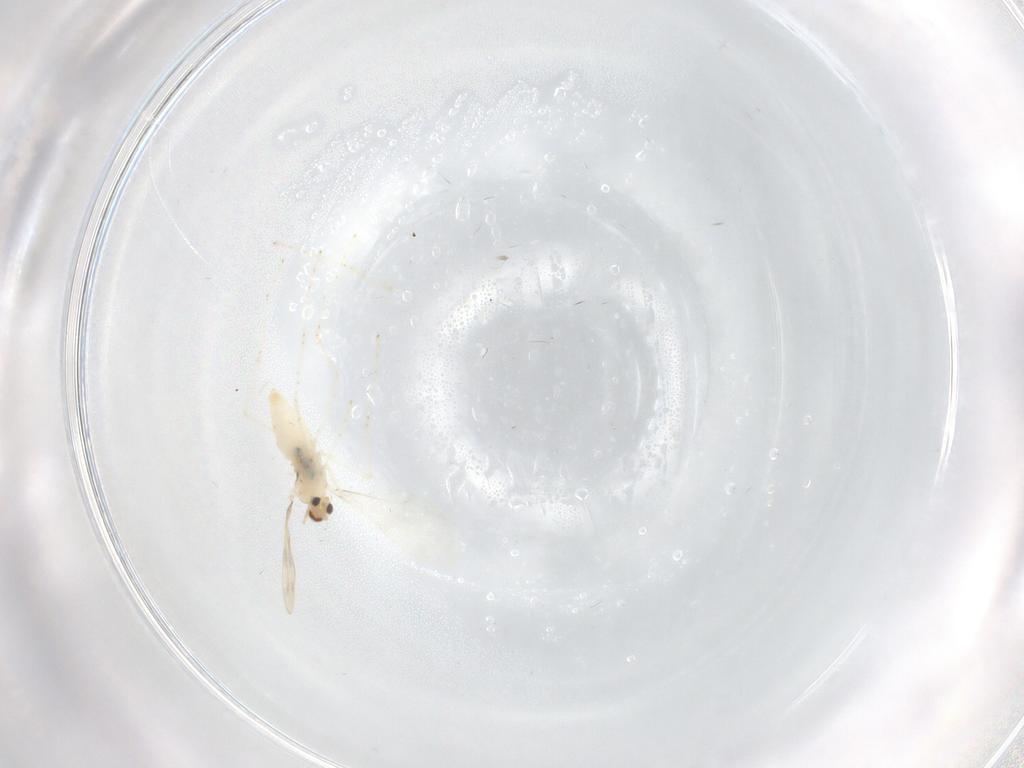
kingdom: Animalia
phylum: Arthropoda
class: Insecta
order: Diptera
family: Cecidomyiidae
